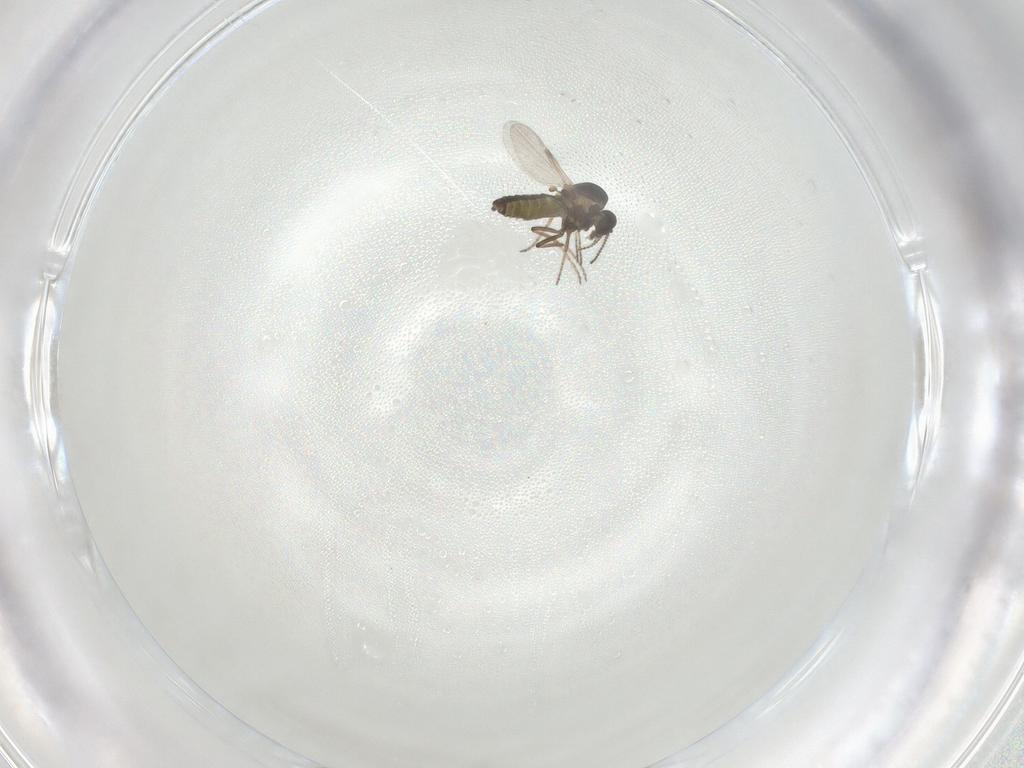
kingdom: Animalia
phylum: Arthropoda
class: Insecta
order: Diptera
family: Ceratopogonidae
